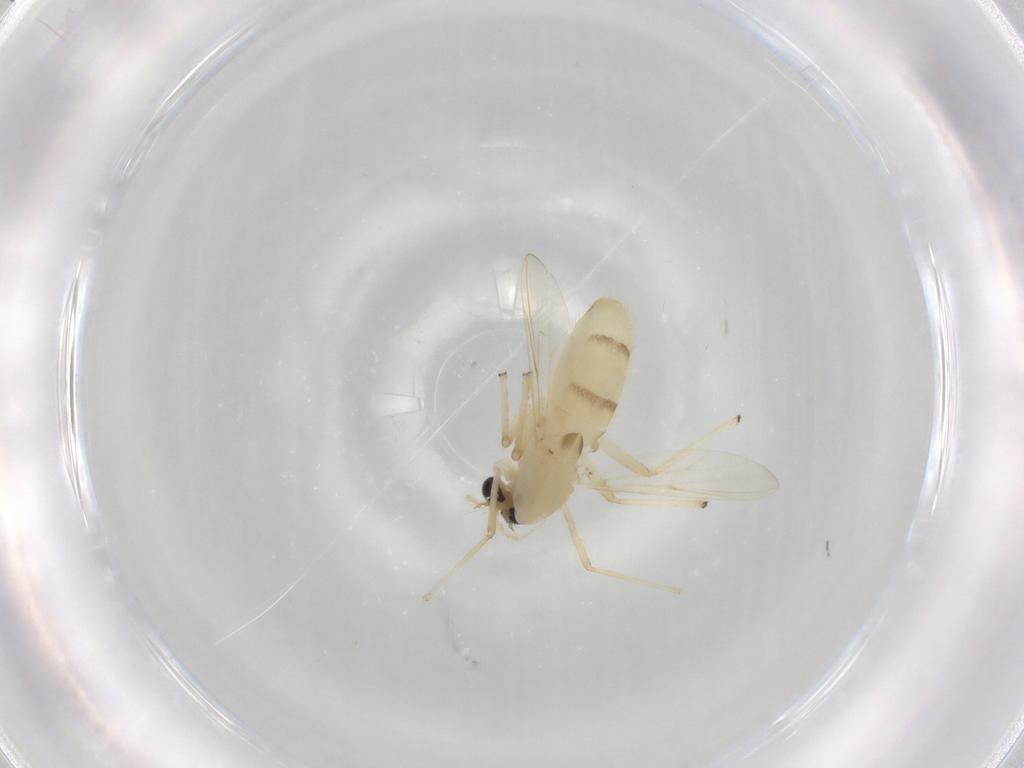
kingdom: Animalia
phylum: Arthropoda
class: Insecta
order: Diptera
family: Chironomidae
